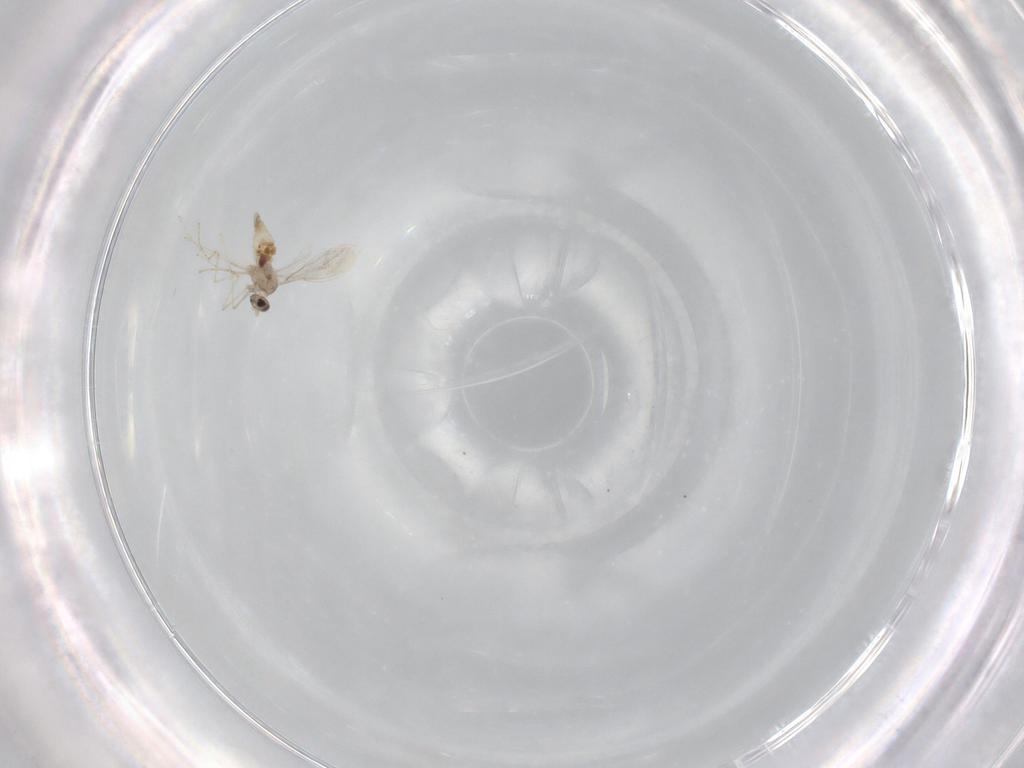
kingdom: Animalia
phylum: Arthropoda
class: Insecta
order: Diptera
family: Cecidomyiidae
